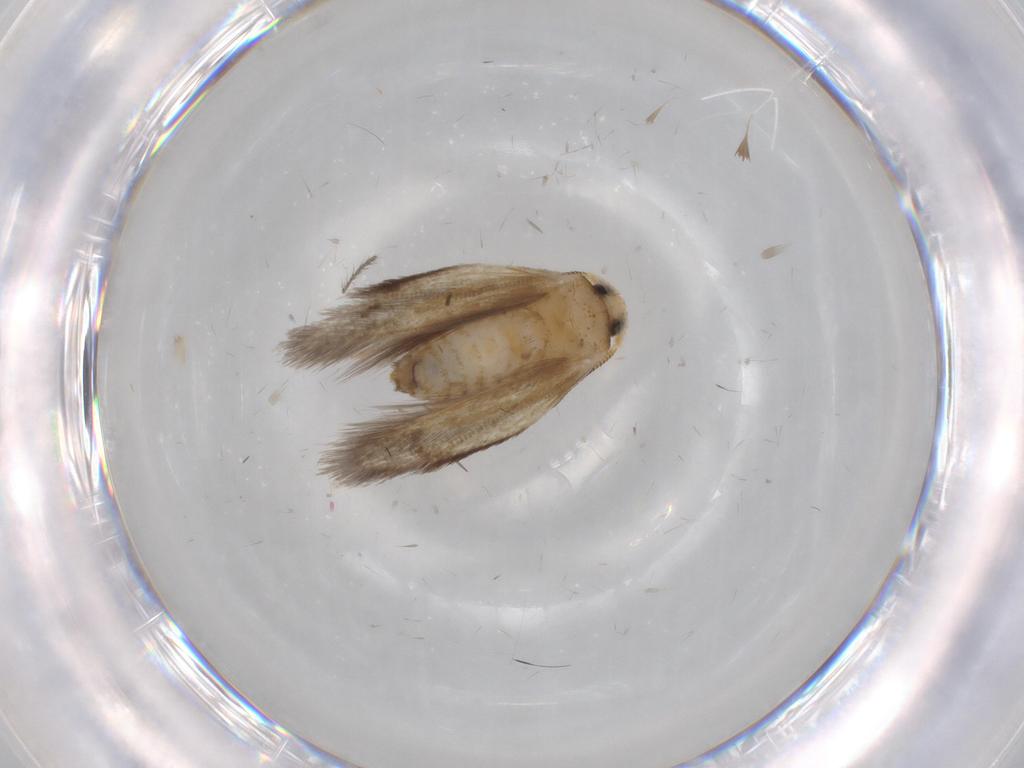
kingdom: Animalia
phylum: Arthropoda
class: Insecta
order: Lepidoptera
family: Nepticulidae
